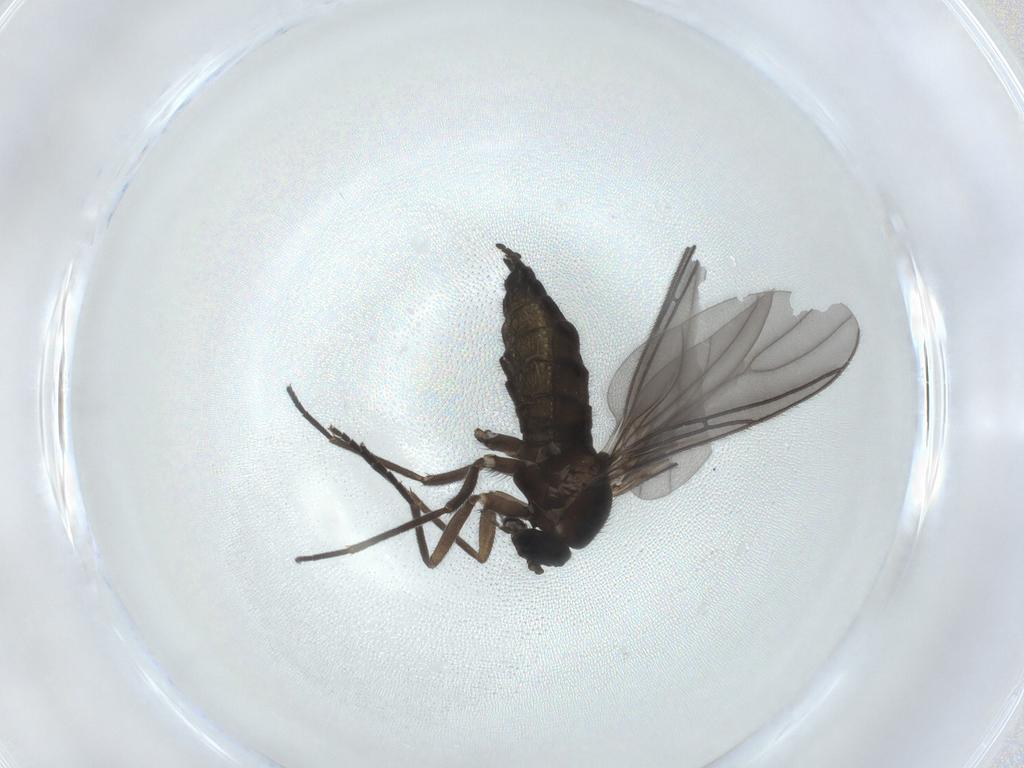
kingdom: Animalia
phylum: Arthropoda
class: Insecta
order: Diptera
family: Sciaridae
